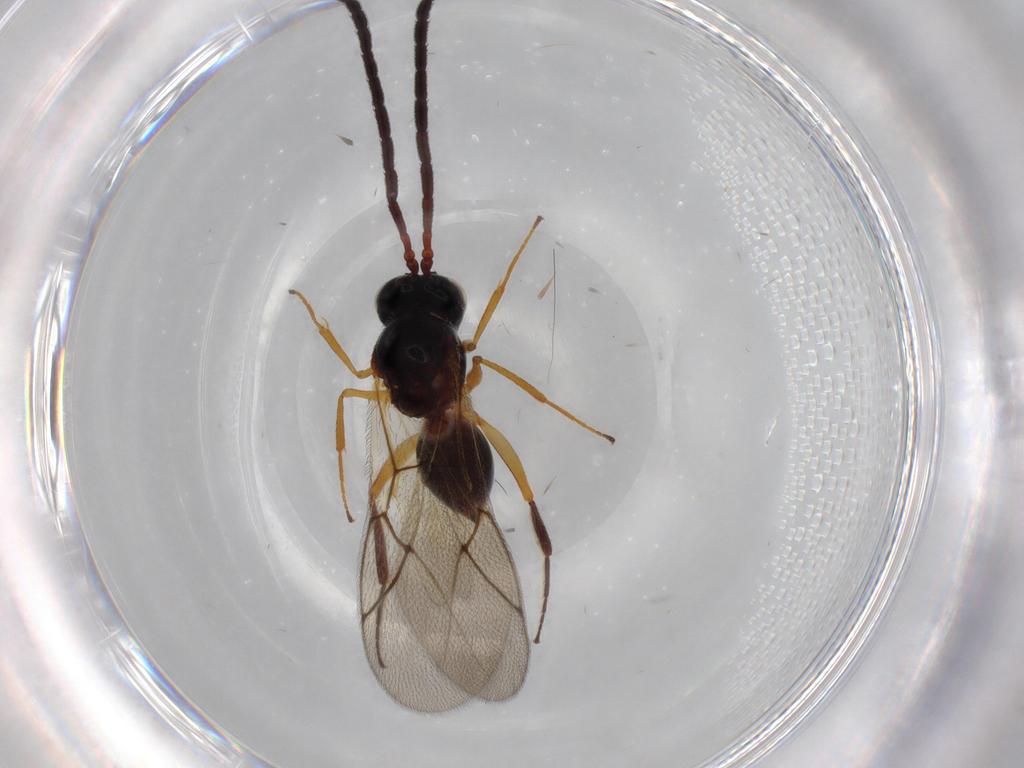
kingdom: Animalia
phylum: Arthropoda
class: Insecta
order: Hymenoptera
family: Figitidae
